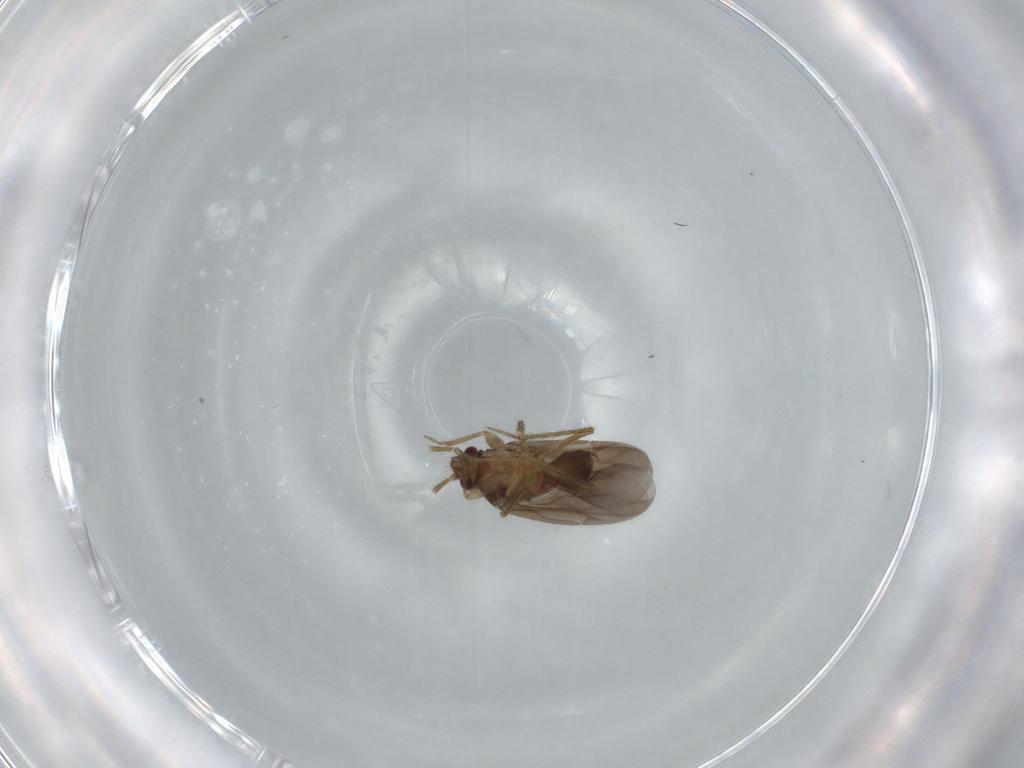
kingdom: Animalia
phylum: Arthropoda
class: Insecta
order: Hemiptera
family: Ceratocombidae
